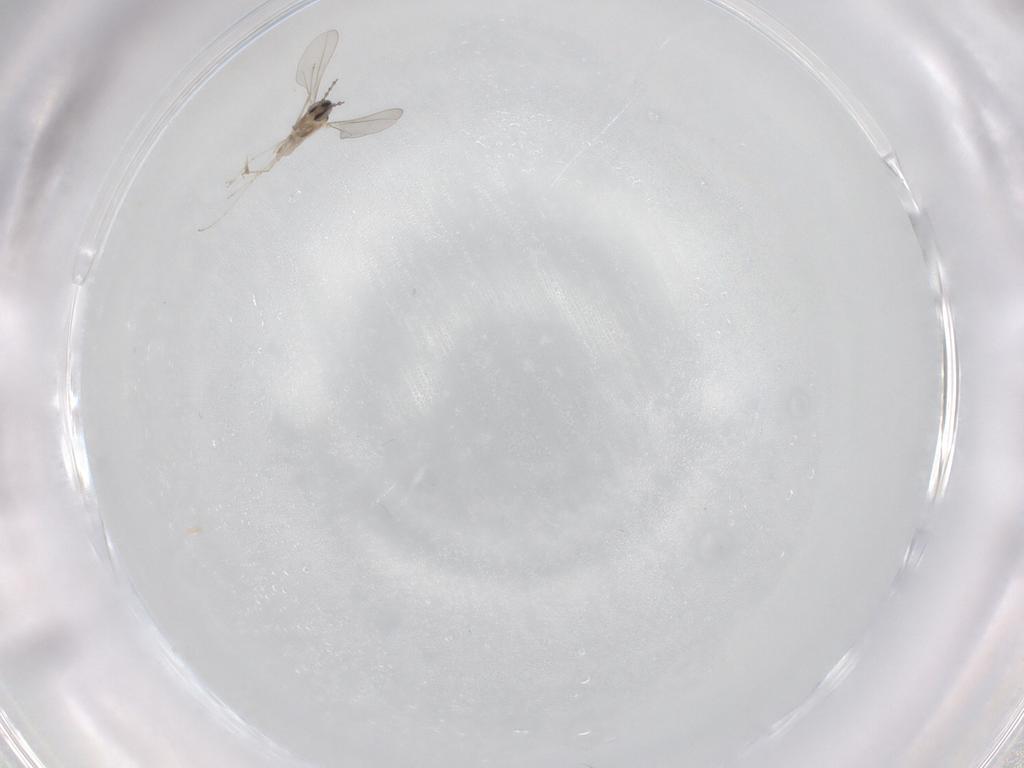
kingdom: Animalia
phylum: Arthropoda
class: Insecta
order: Diptera
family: Cecidomyiidae
